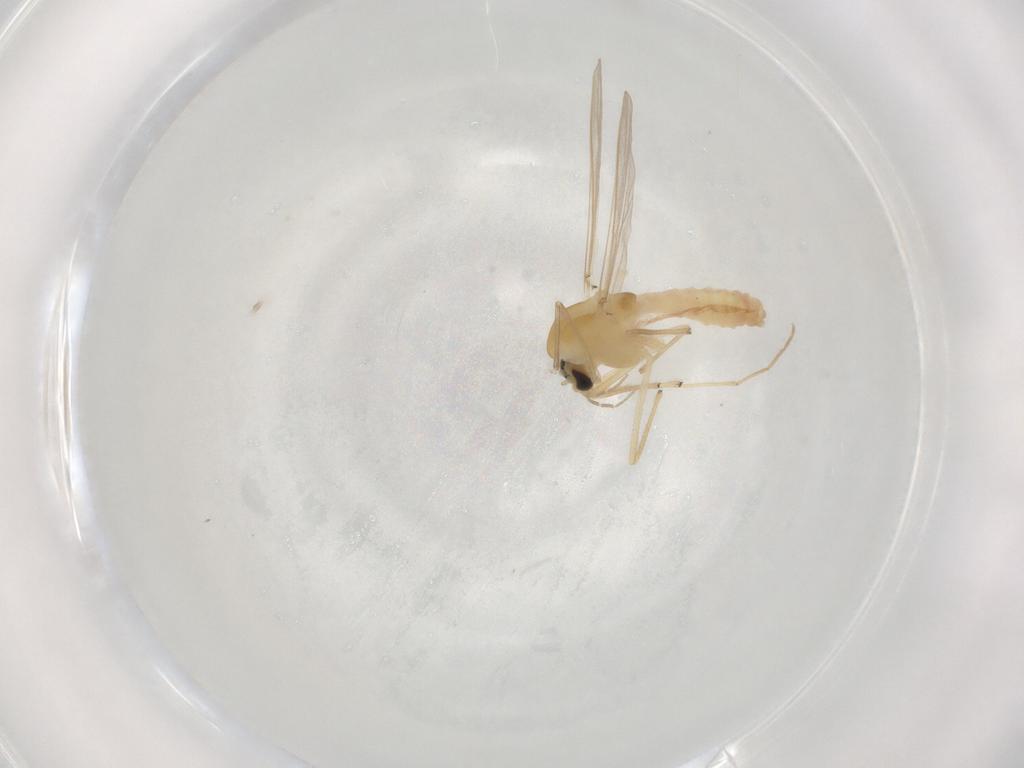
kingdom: Animalia
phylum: Arthropoda
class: Insecta
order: Diptera
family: Chironomidae
